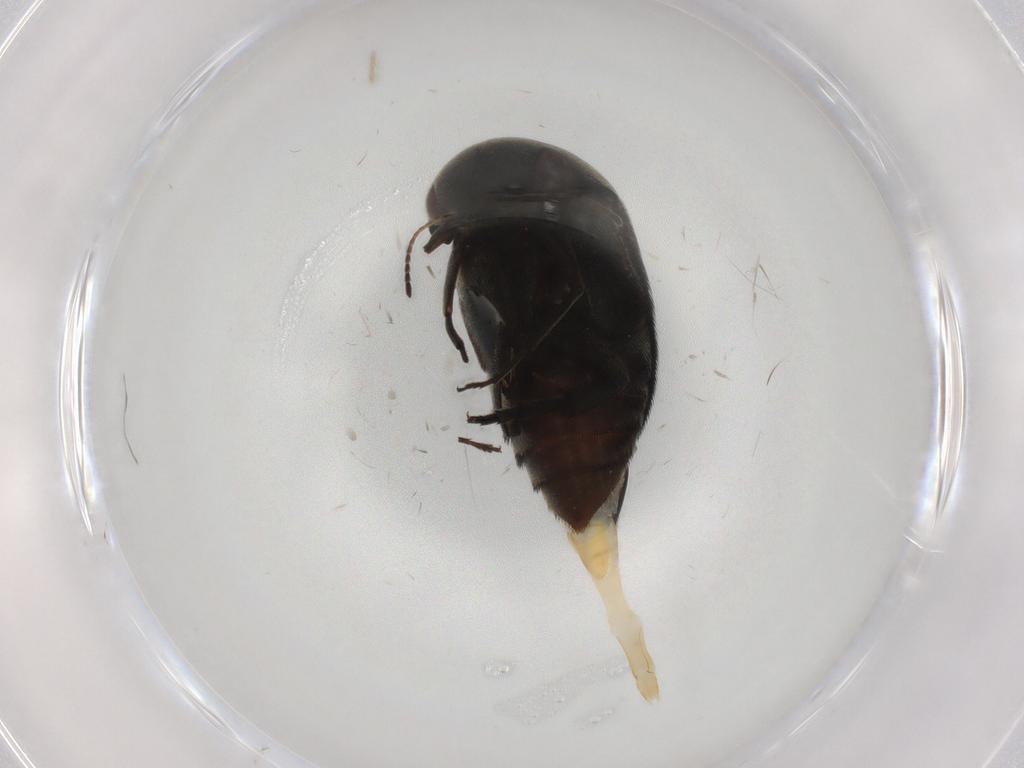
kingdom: Animalia
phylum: Arthropoda
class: Insecta
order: Coleoptera
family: Mordellidae
